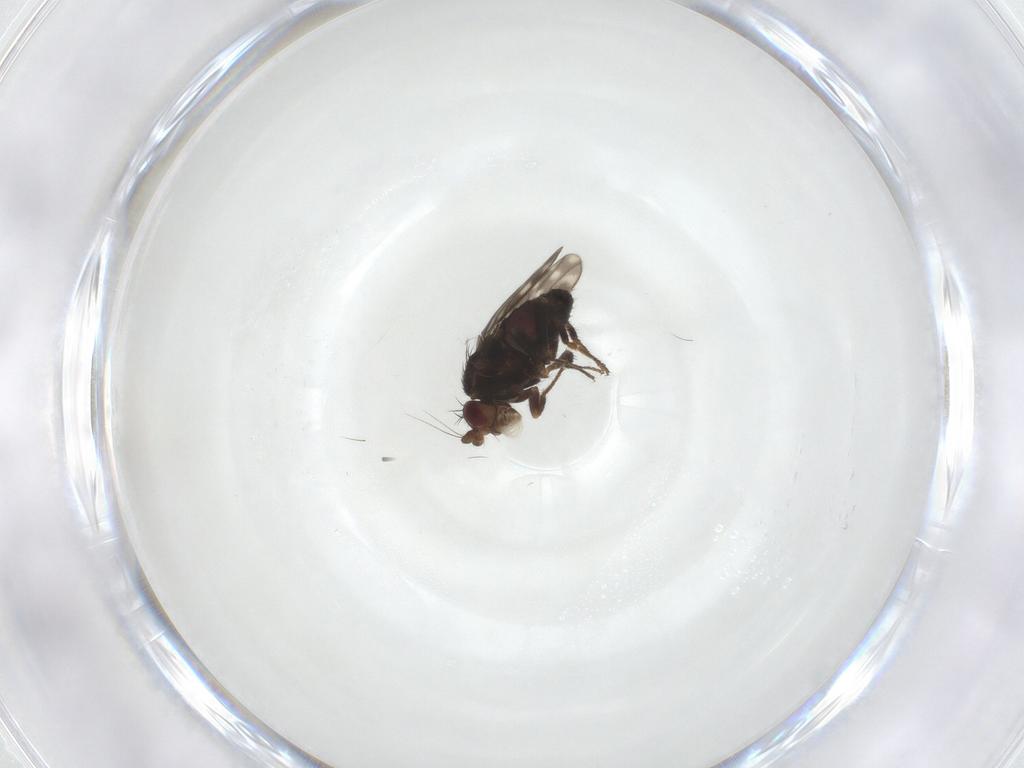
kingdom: Animalia
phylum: Arthropoda
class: Insecta
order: Diptera
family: Sphaeroceridae
